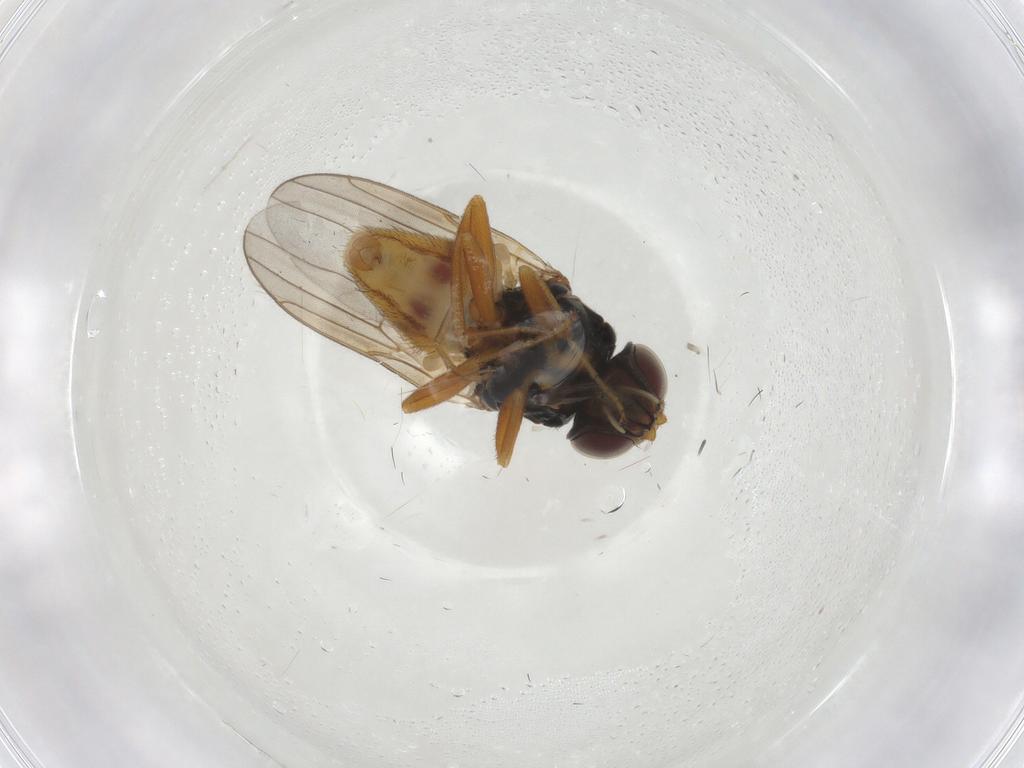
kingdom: Animalia
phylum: Arthropoda
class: Insecta
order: Diptera
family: Chloropidae
